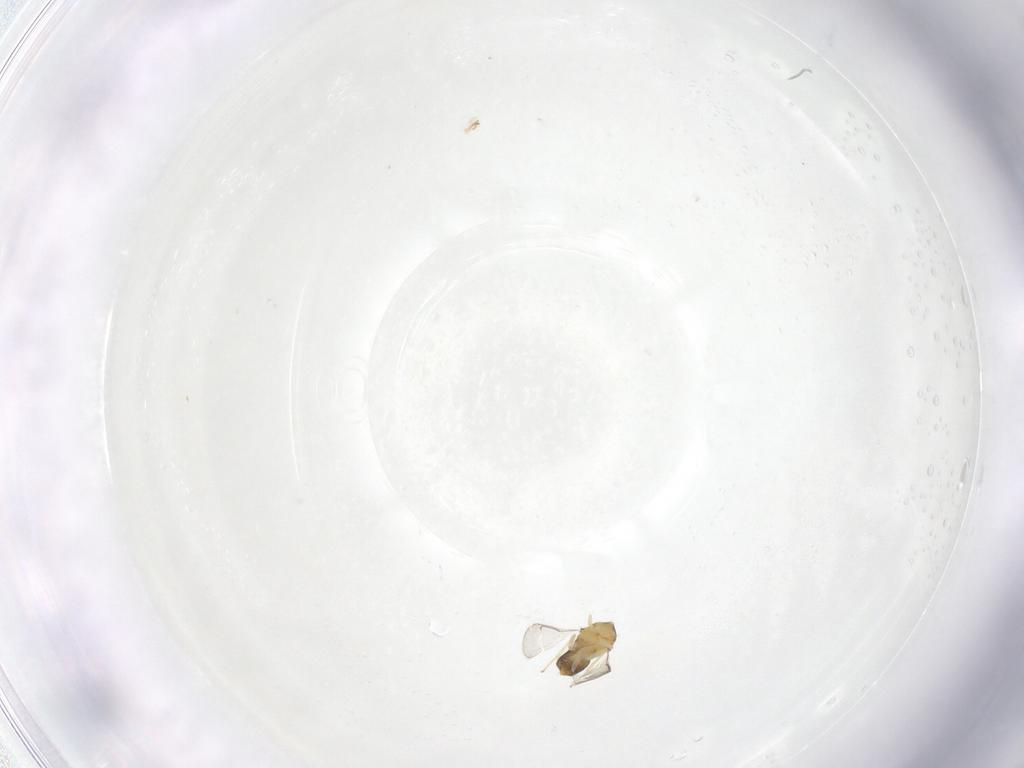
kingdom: Animalia
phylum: Arthropoda
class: Insecta
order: Hymenoptera
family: Aphelinidae
